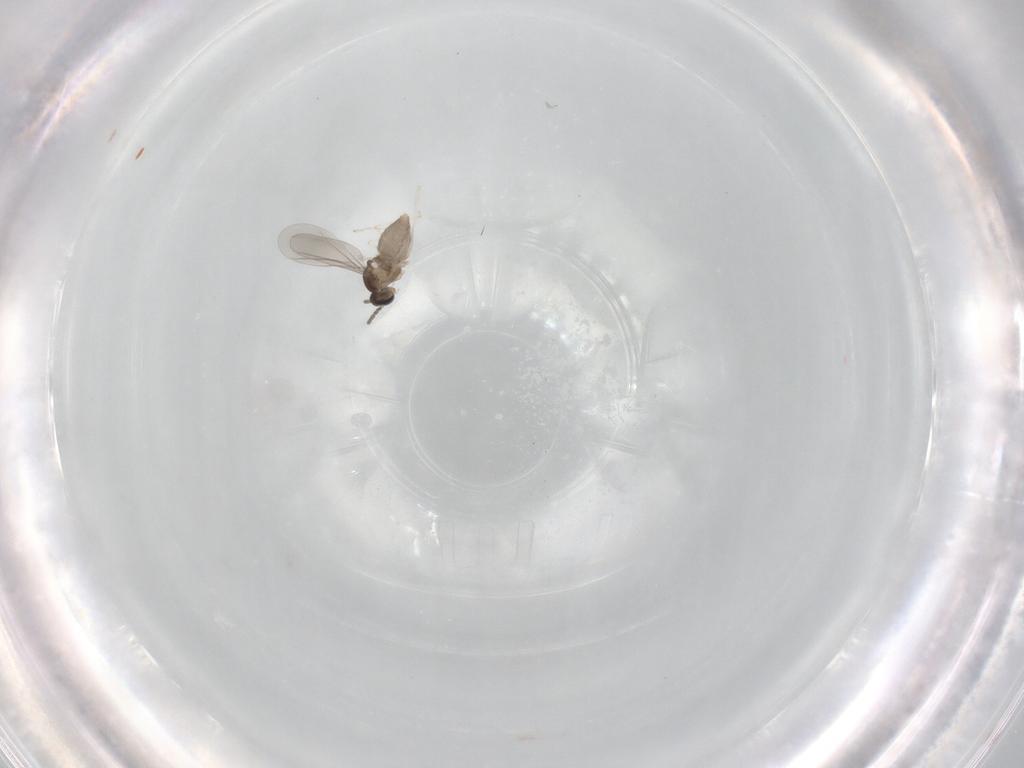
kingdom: Animalia
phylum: Arthropoda
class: Insecta
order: Diptera
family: Cecidomyiidae
